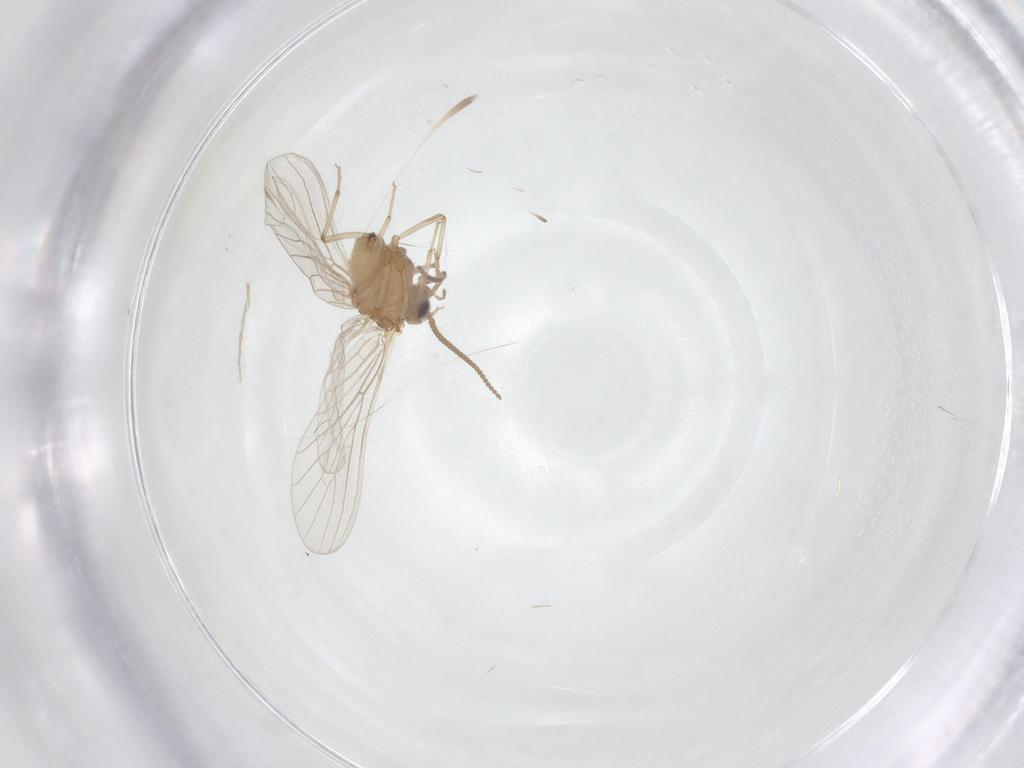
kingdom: Animalia
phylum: Arthropoda
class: Insecta
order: Neuroptera
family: Coniopterygidae
